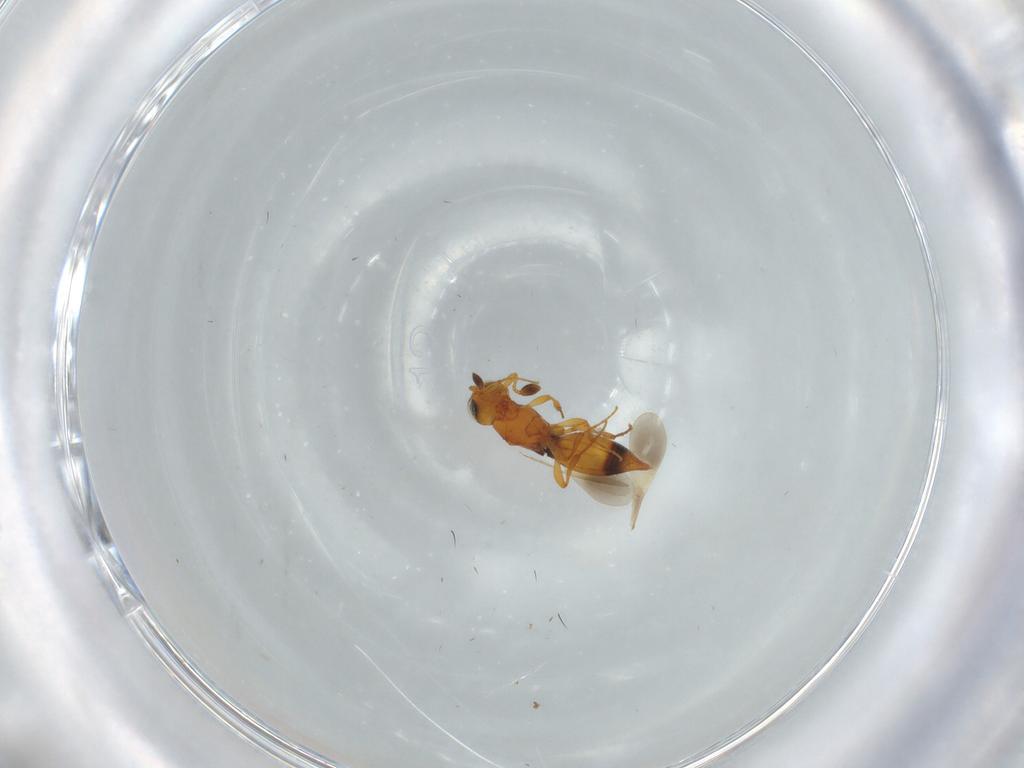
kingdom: Animalia
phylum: Arthropoda
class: Insecta
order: Hymenoptera
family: Platygastridae
